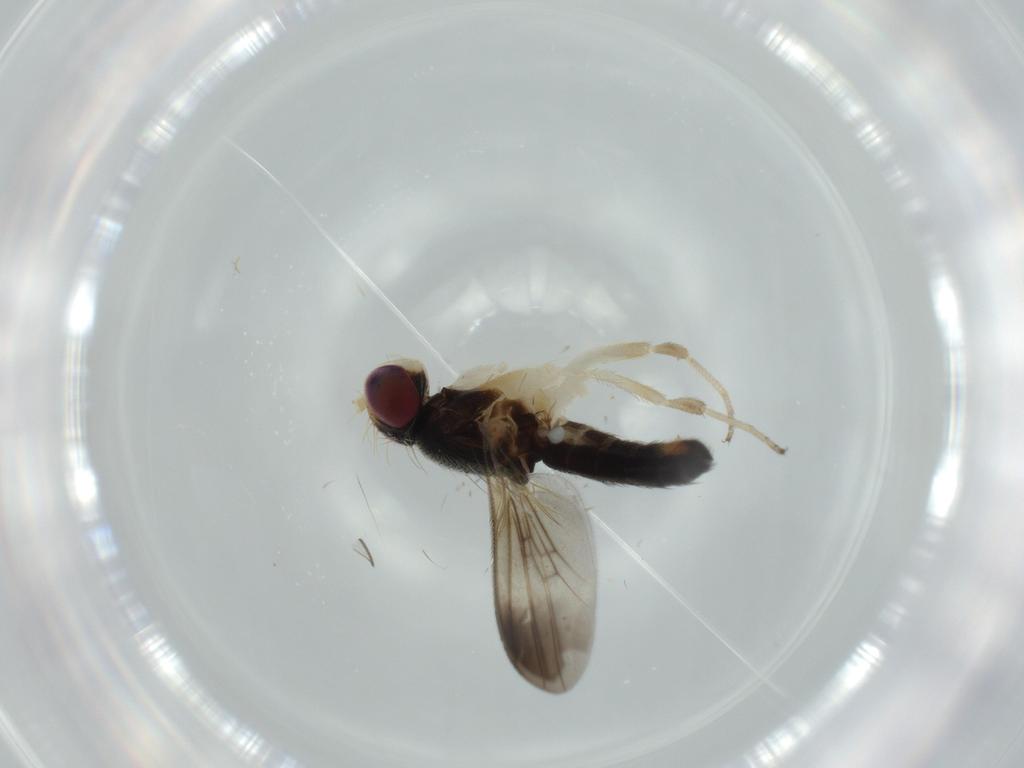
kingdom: Animalia
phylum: Arthropoda
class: Insecta
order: Diptera
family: Clusiidae
